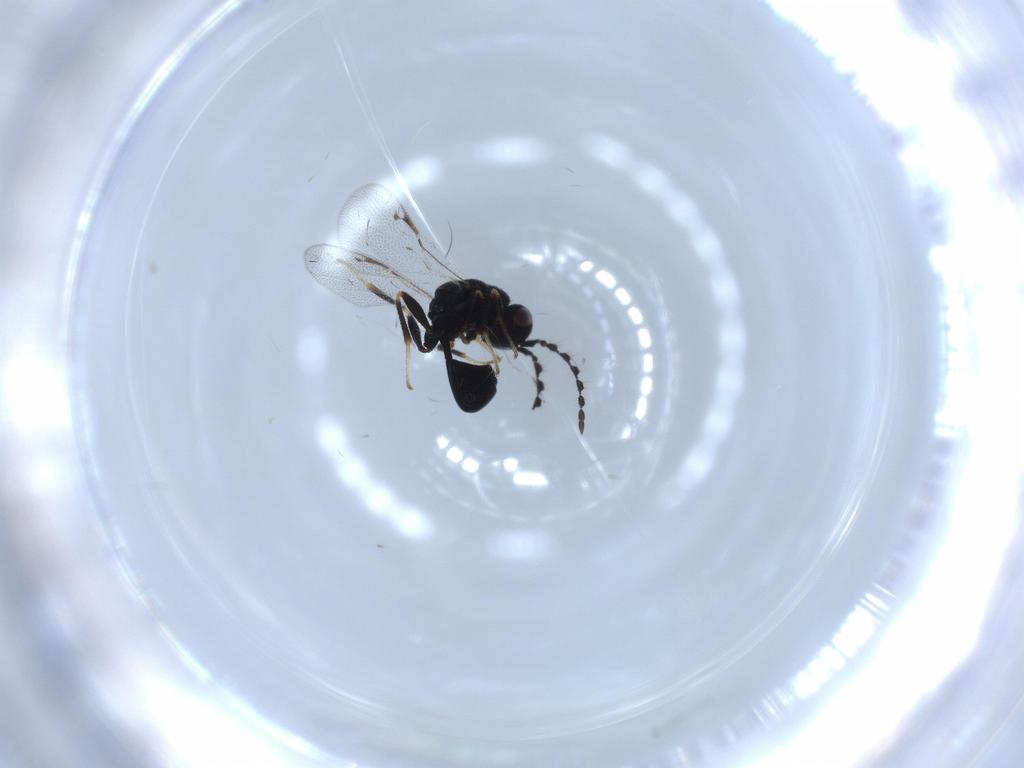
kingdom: Animalia
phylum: Arthropoda
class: Insecta
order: Hymenoptera
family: Eurytomidae
